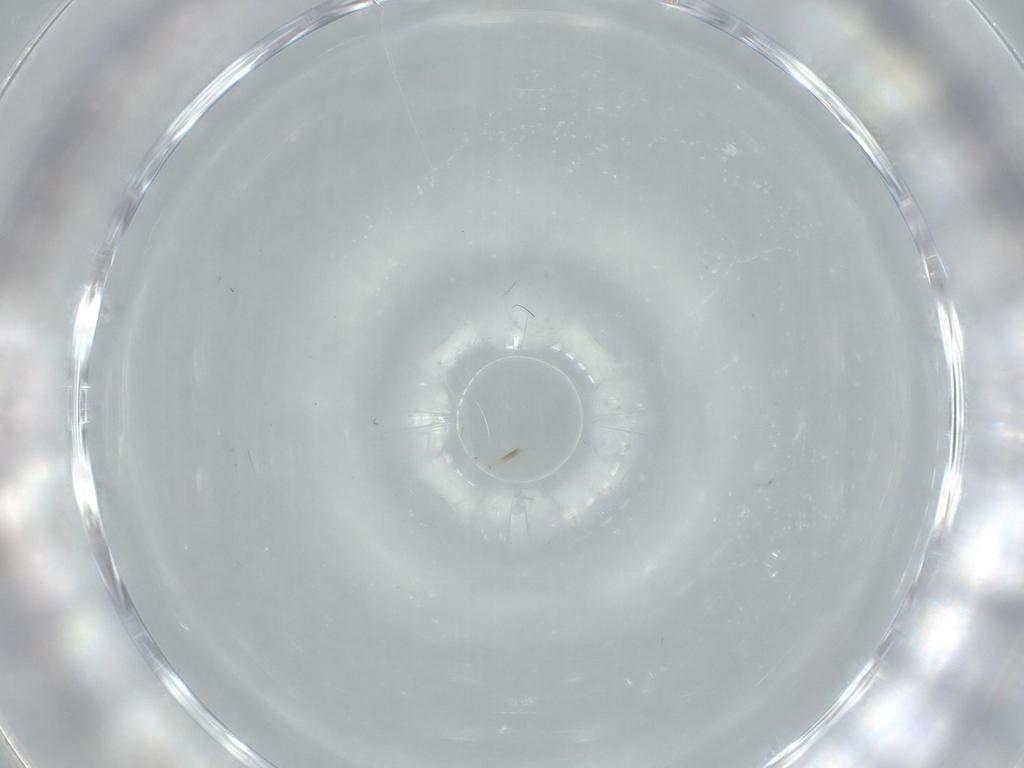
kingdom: Animalia
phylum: Arthropoda
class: Insecta
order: Diptera
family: Cecidomyiidae
